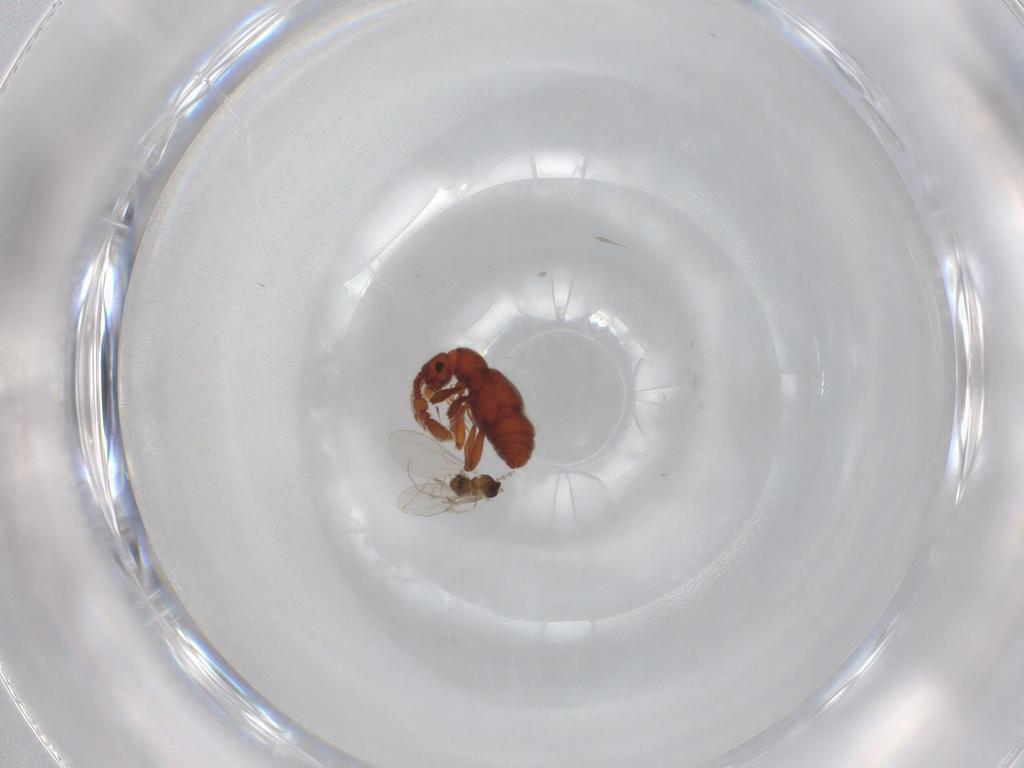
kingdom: Animalia
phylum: Arthropoda
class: Insecta
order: Diptera
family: Cecidomyiidae
